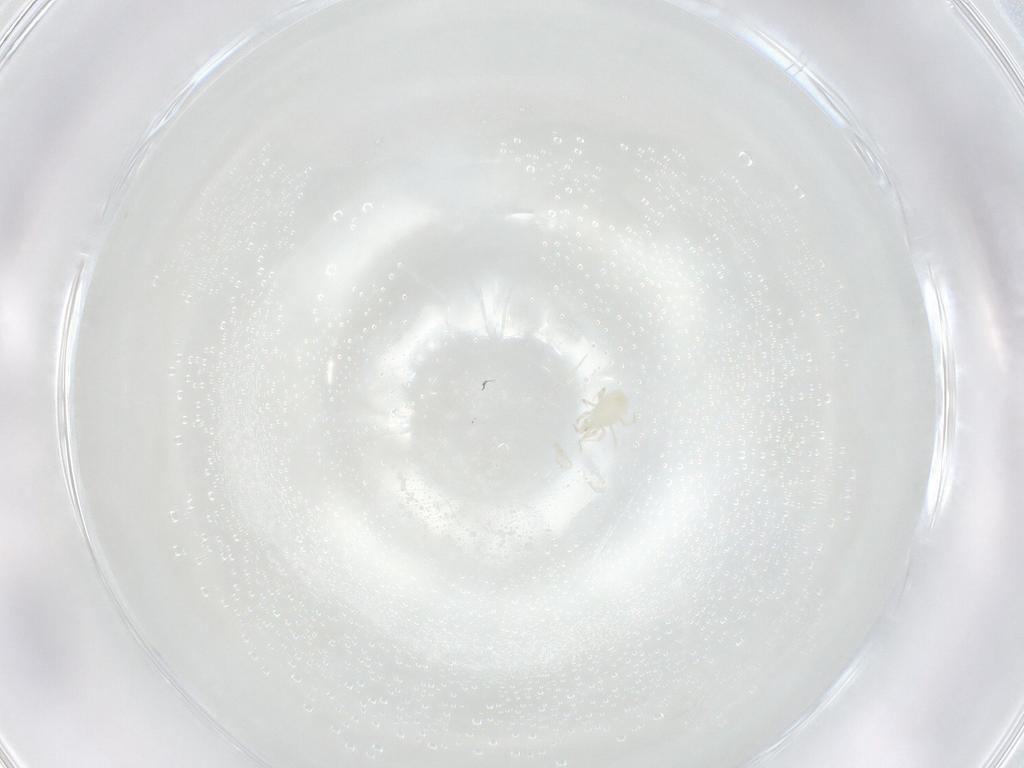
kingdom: Animalia
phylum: Arthropoda
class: Arachnida
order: Trombidiformes
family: Eupodidae
